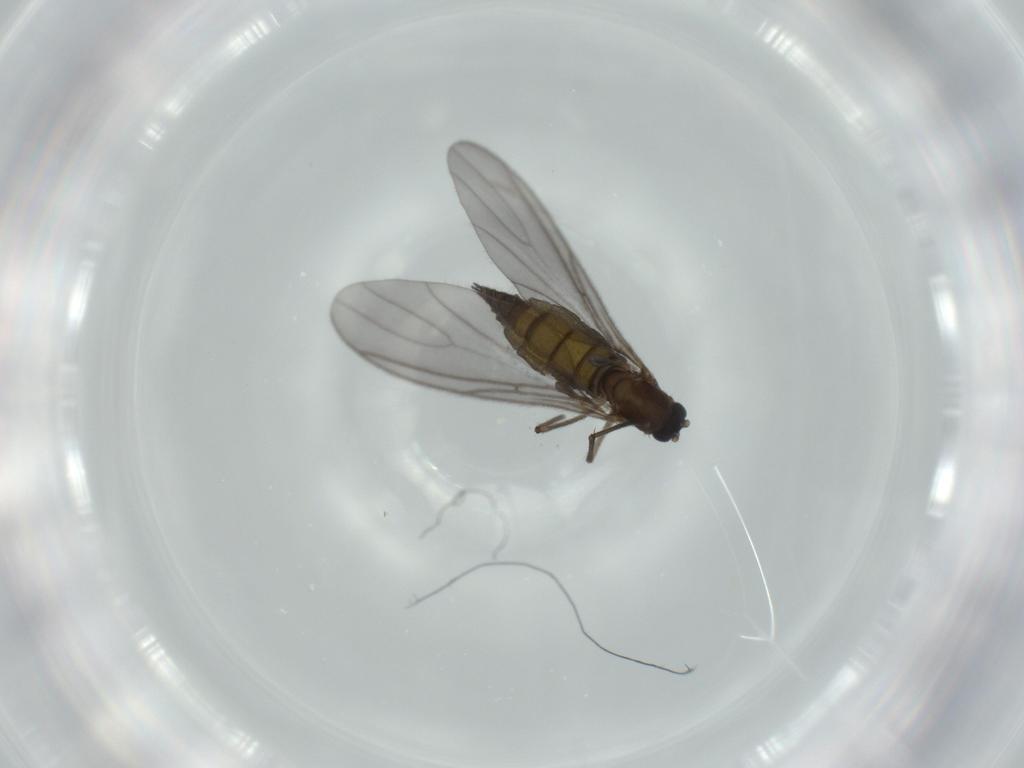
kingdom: Animalia
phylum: Arthropoda
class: Insecta
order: Diptera
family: Sciaridae
